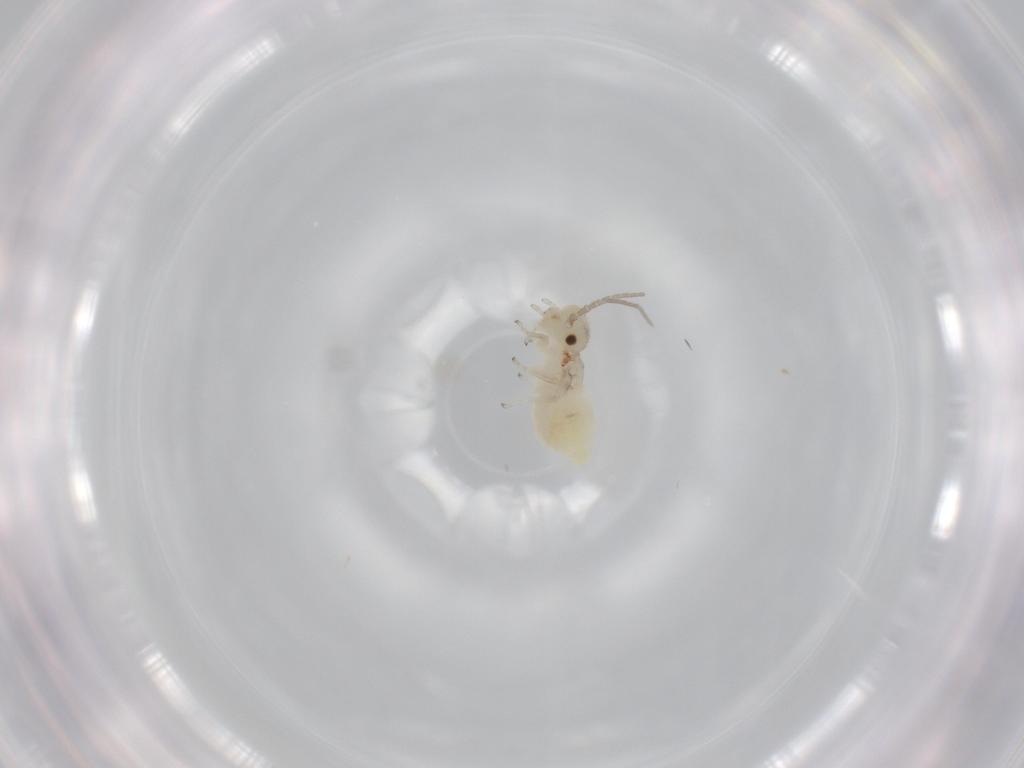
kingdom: Animalia
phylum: Arthropoda
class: Insecta
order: Psocodea
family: Caeciliusidae
